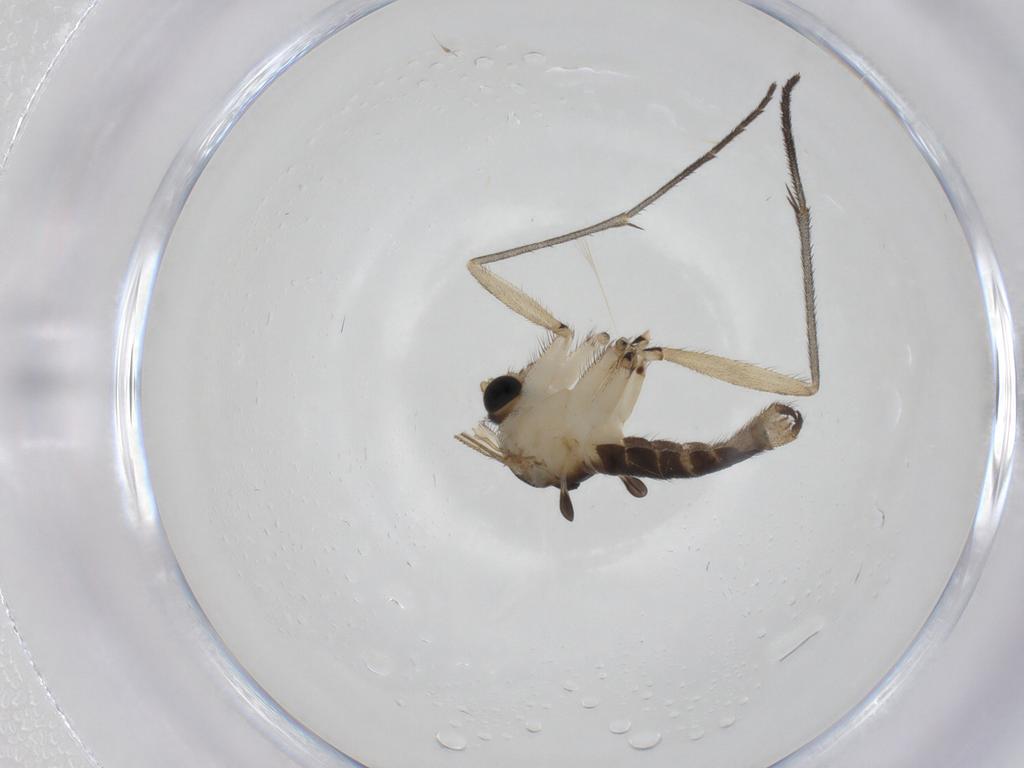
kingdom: Animalia
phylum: Arthropoda
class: Insecta
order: Diptera
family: Sciaridae
